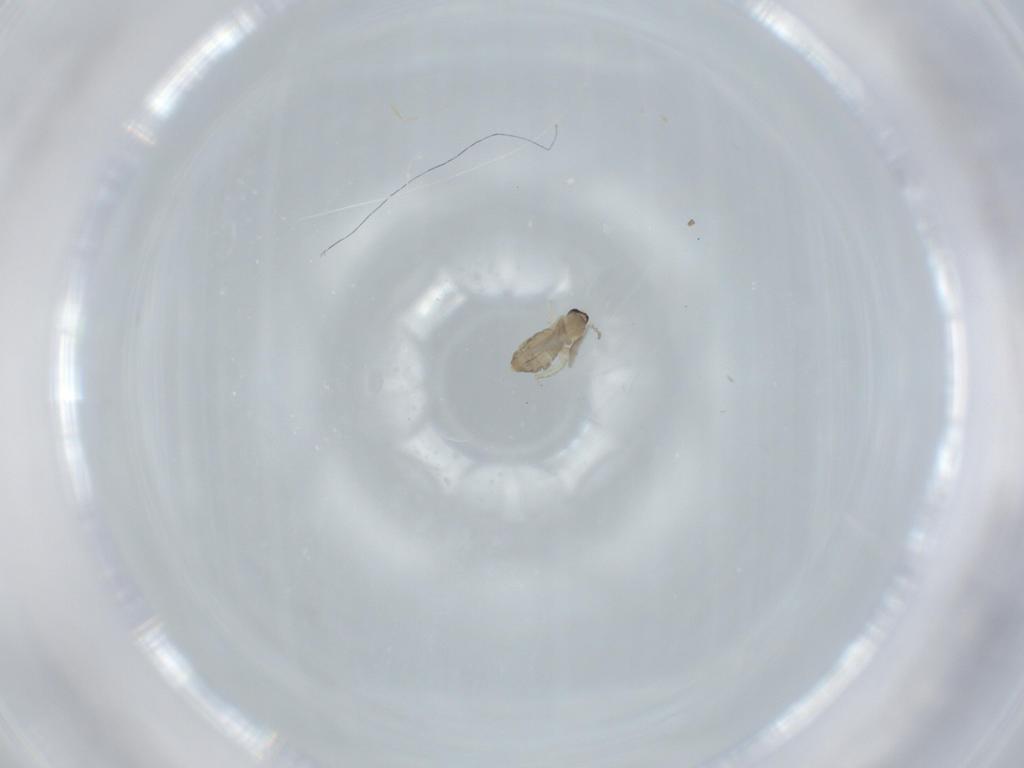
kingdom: Animalia
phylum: Arthropoda
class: Insecta
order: Diptera
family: Cecidomyiidae
